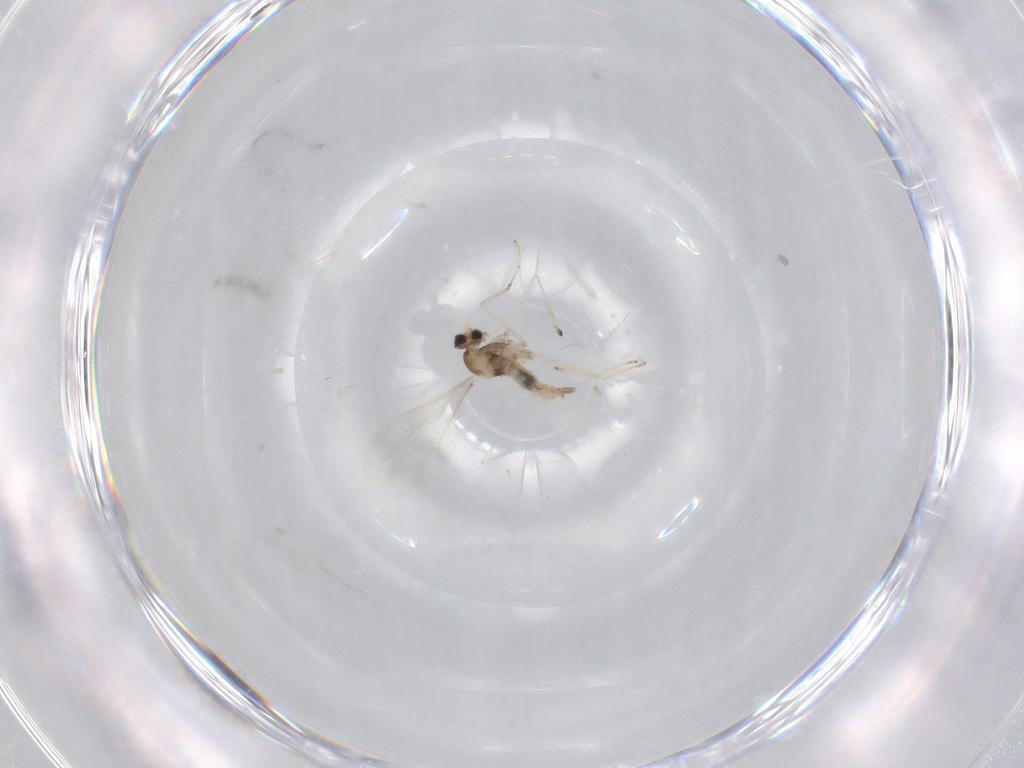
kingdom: Animalia
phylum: Arthropoda
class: Insecta
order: Diptera
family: Cecidomyiidae
